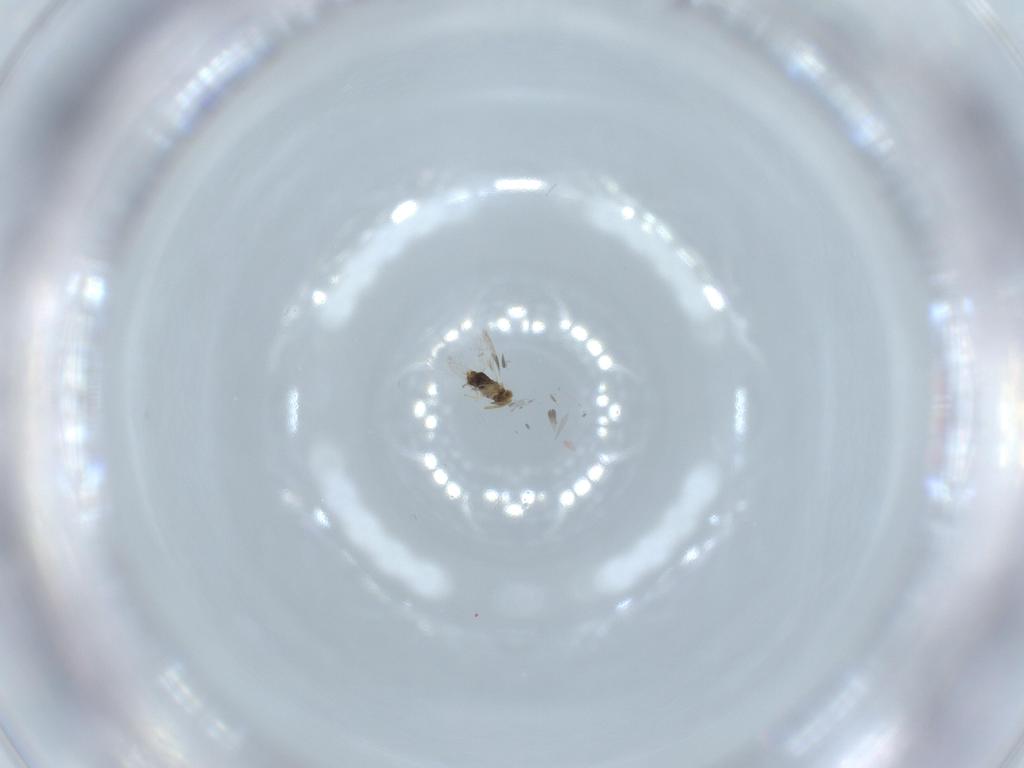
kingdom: Animalia
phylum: Arthropoda
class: Insecta
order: Hymenoptera
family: Aphelinidae
